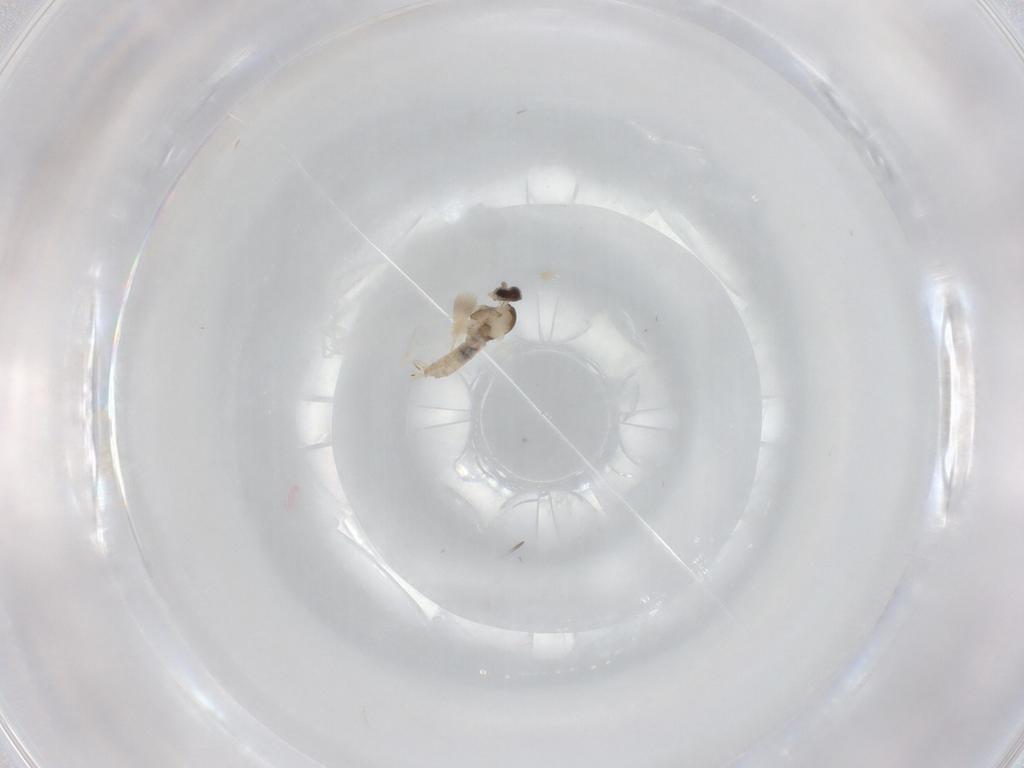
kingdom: Animalia
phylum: Arthropoda
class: Insecta
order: Diptera
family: Cecidomyiidae
